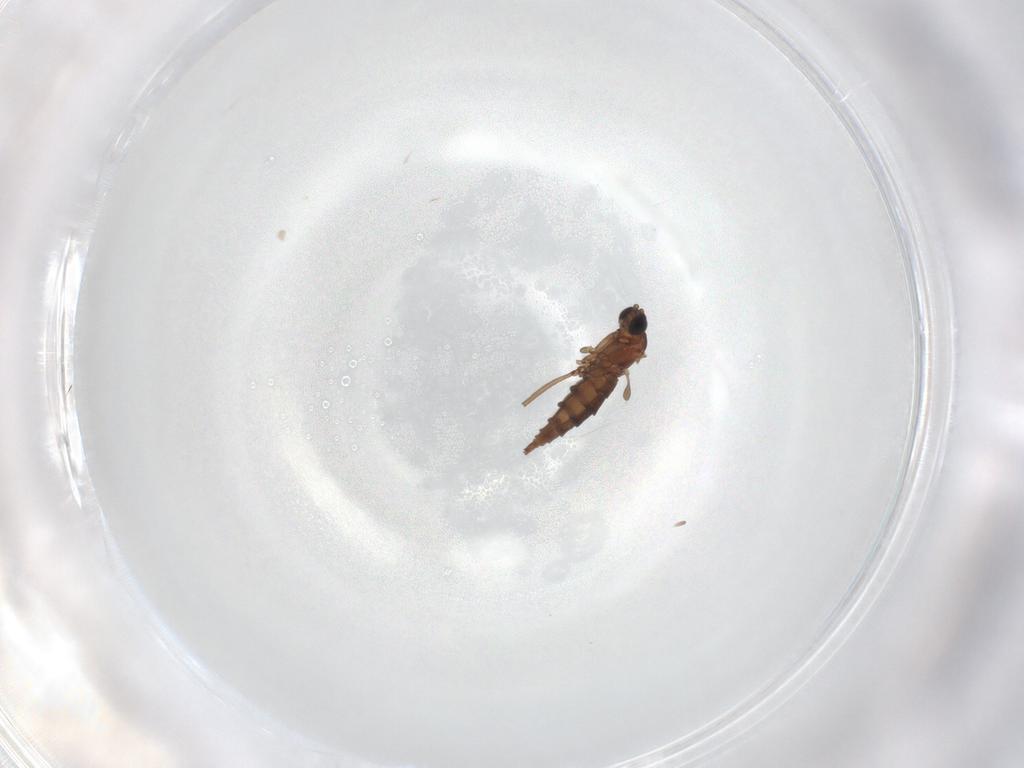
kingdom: Animalia
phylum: Arthropoda
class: Insecta
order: Diptera
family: Sciaridae
